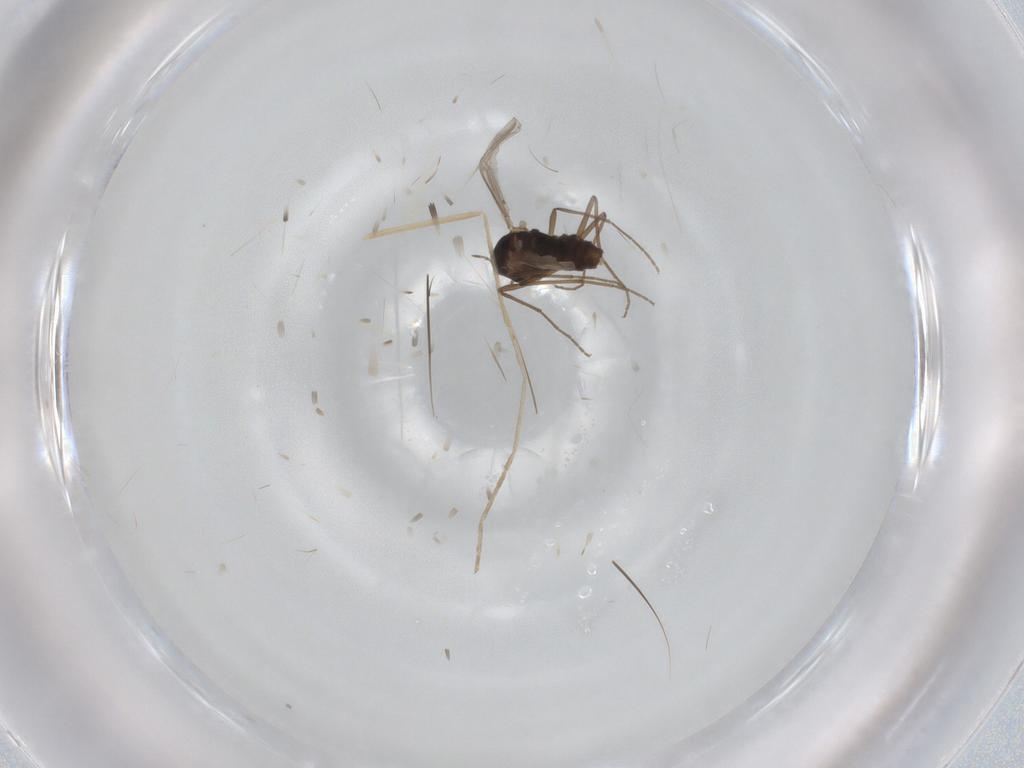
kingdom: Animalia
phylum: Arthropoda
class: Insecta
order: Diptera
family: Chironomidae
